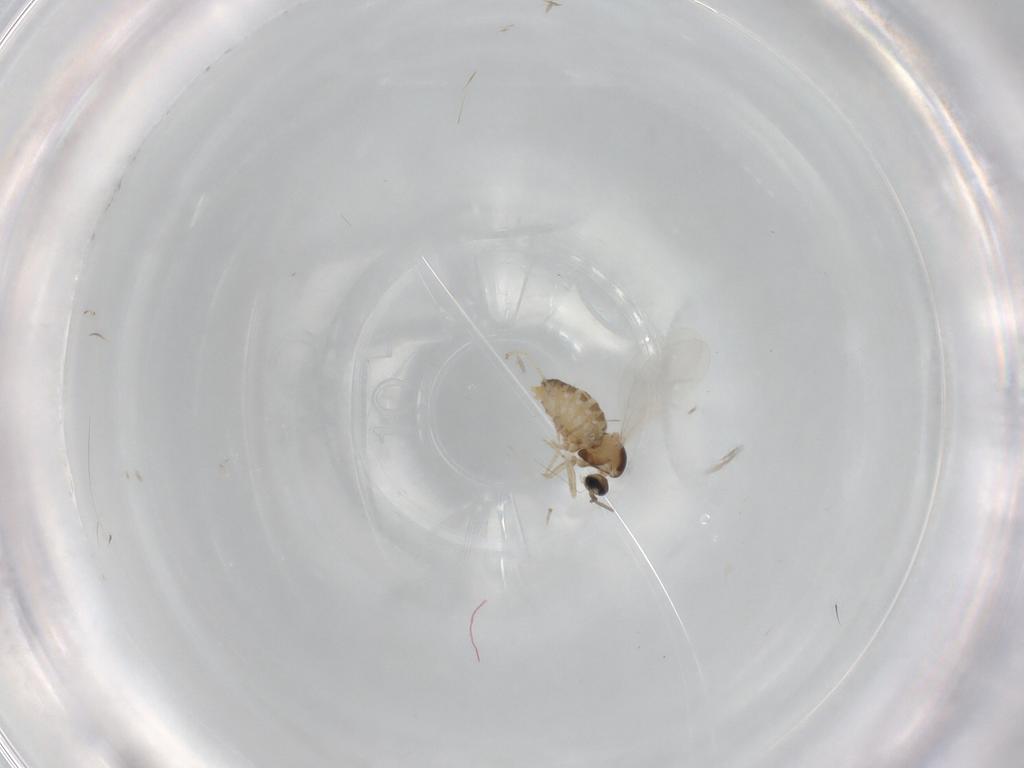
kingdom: Animalia
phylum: Arthropoda
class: Insecta
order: Diptera
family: Cecidomyiidae
